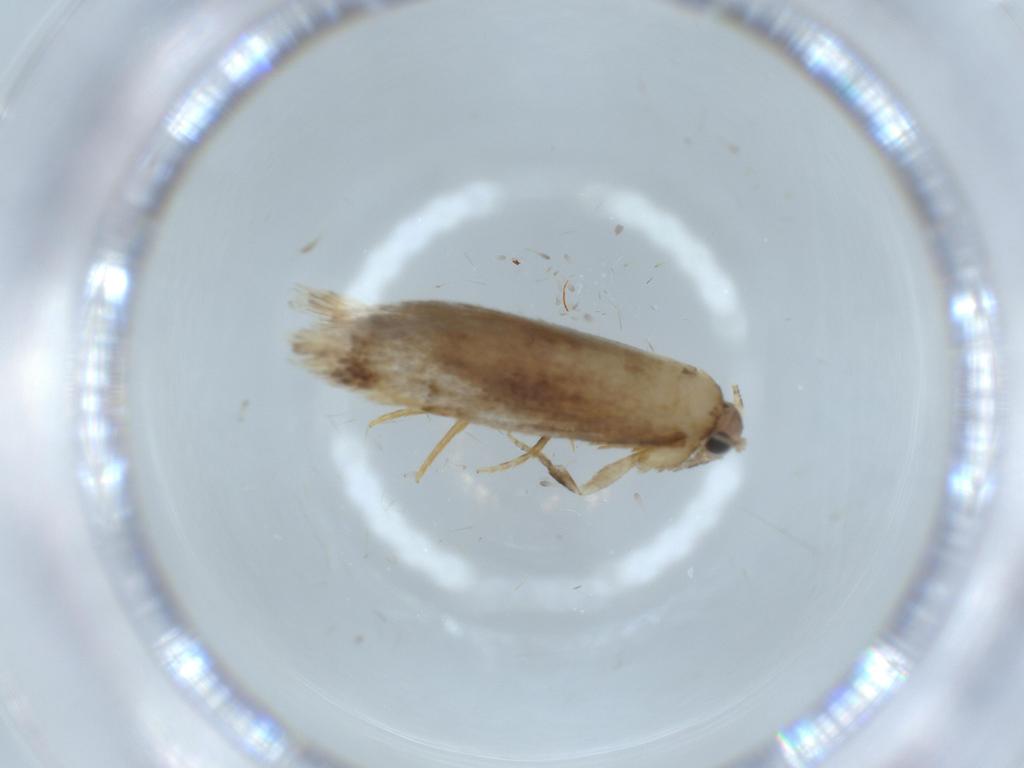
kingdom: Animalia
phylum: Arthropoda
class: Insecta
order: Lepidoptera
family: Tineidae
